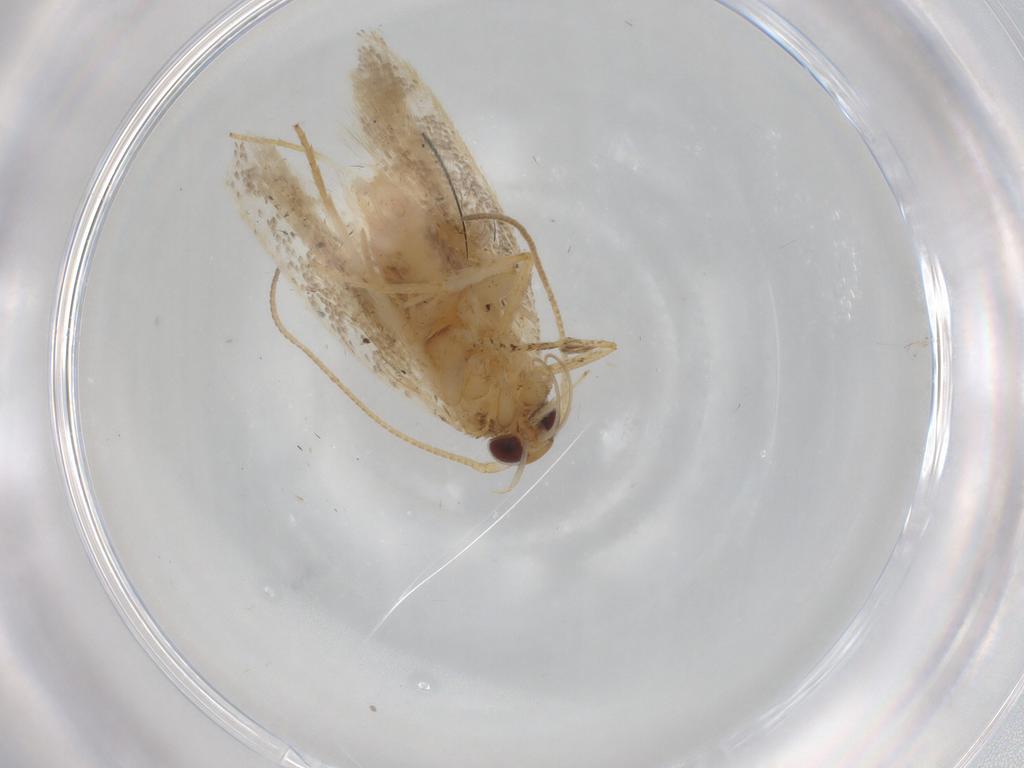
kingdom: Animalia
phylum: Arthropoda
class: Insecta
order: Lepidoptera
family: Gelechiidae
